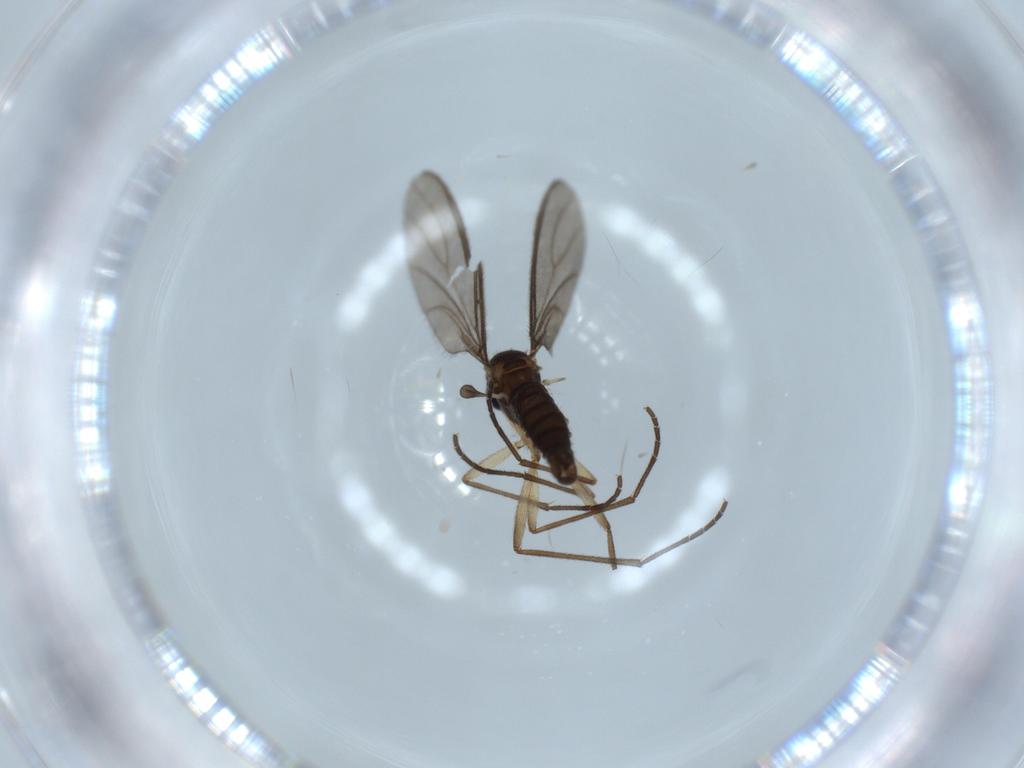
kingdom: Animalia
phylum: Arthropoda
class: Insecta
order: Diptera
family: Sciaridae
